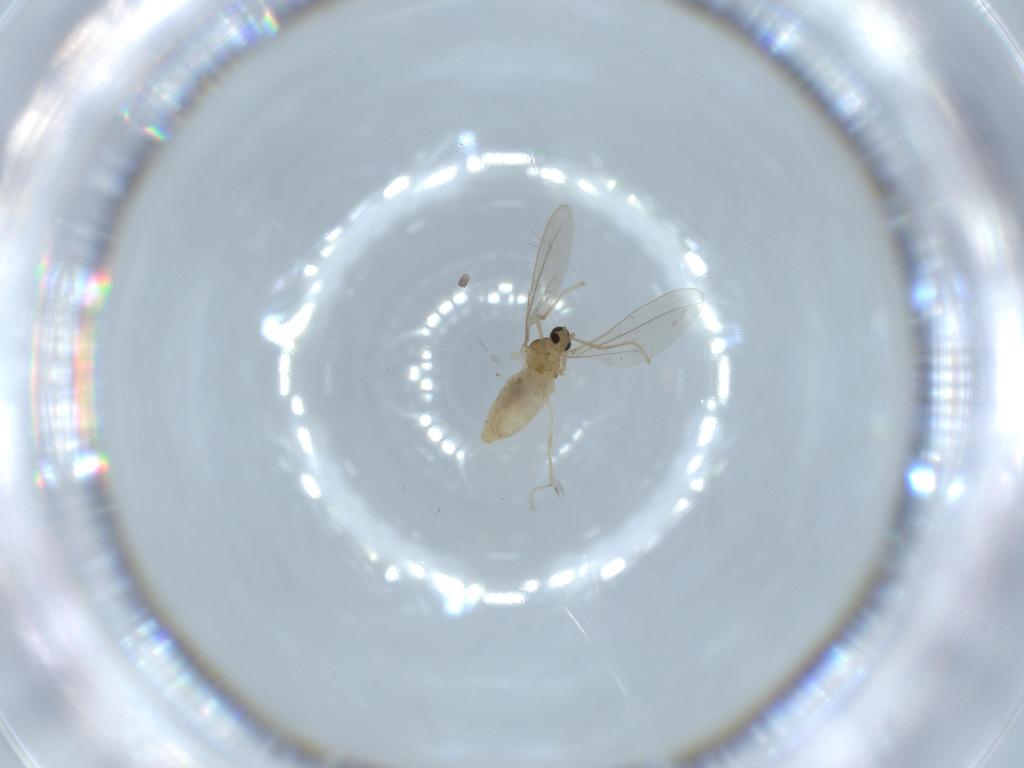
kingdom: Animalia
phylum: Arthropoda
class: Insecta
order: Diptera
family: Cecidomyiidae
